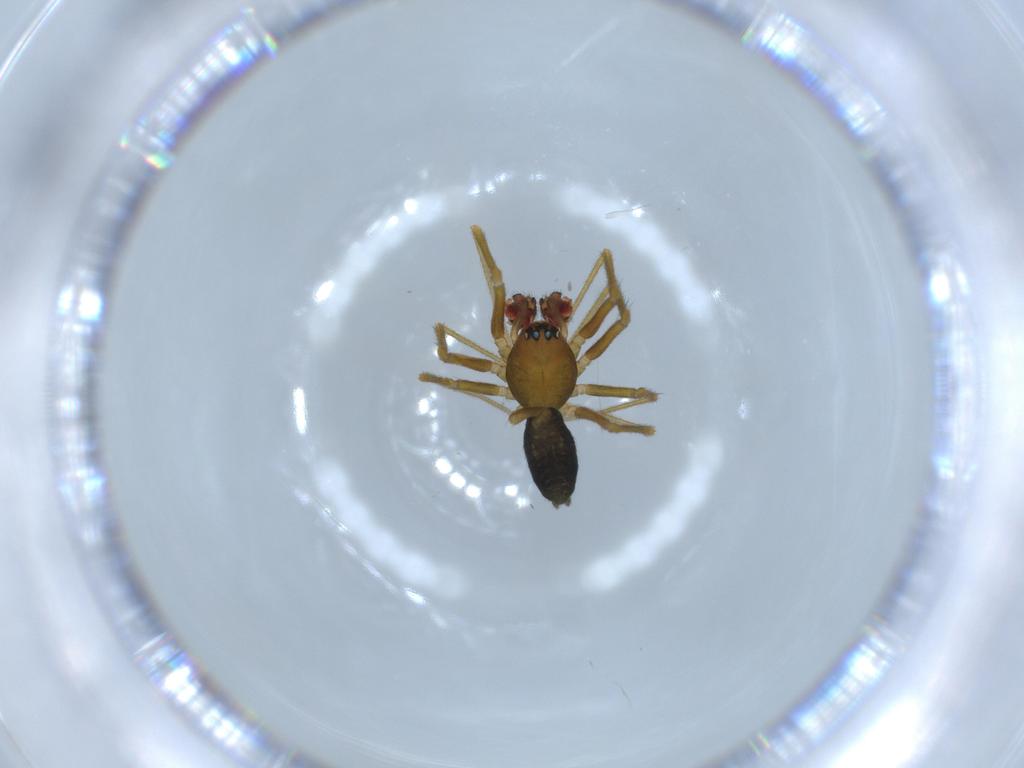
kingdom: Animalia
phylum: Arthropoda
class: Arachnida
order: Araneae
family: Linyphiidae
